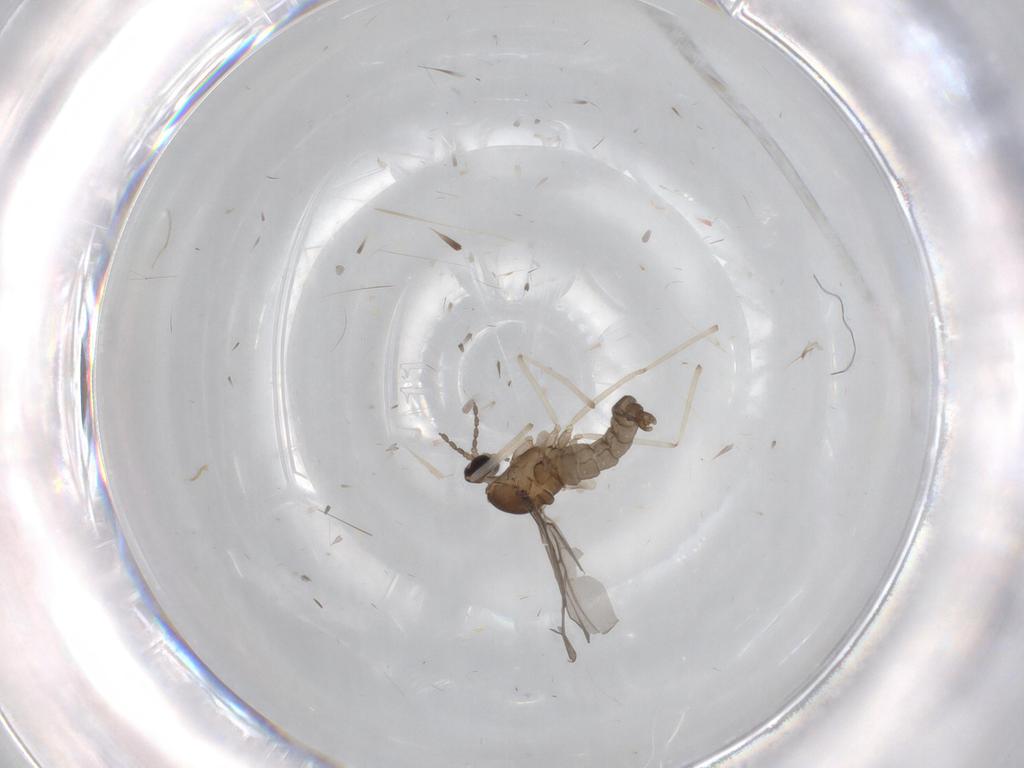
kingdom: Animalia
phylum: Arthropoda
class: Insecta
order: Diptera
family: Cecidomyiidae
